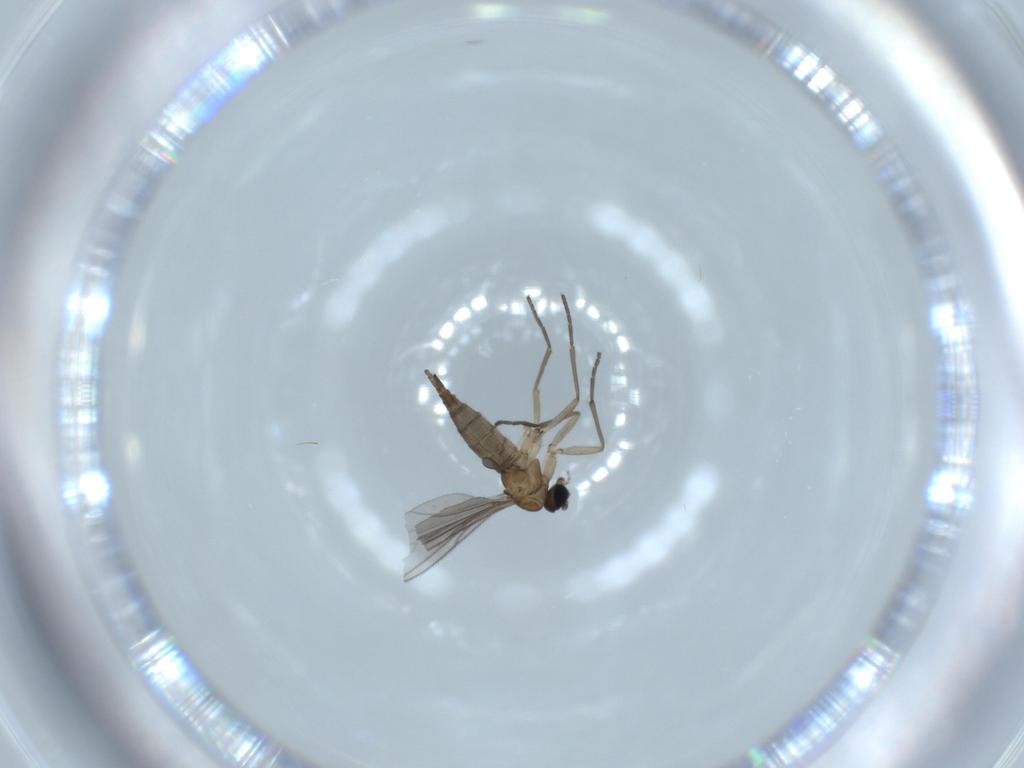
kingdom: Animalia
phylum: Arthropoda
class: Insecta
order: Diptera
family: Sciaridae
